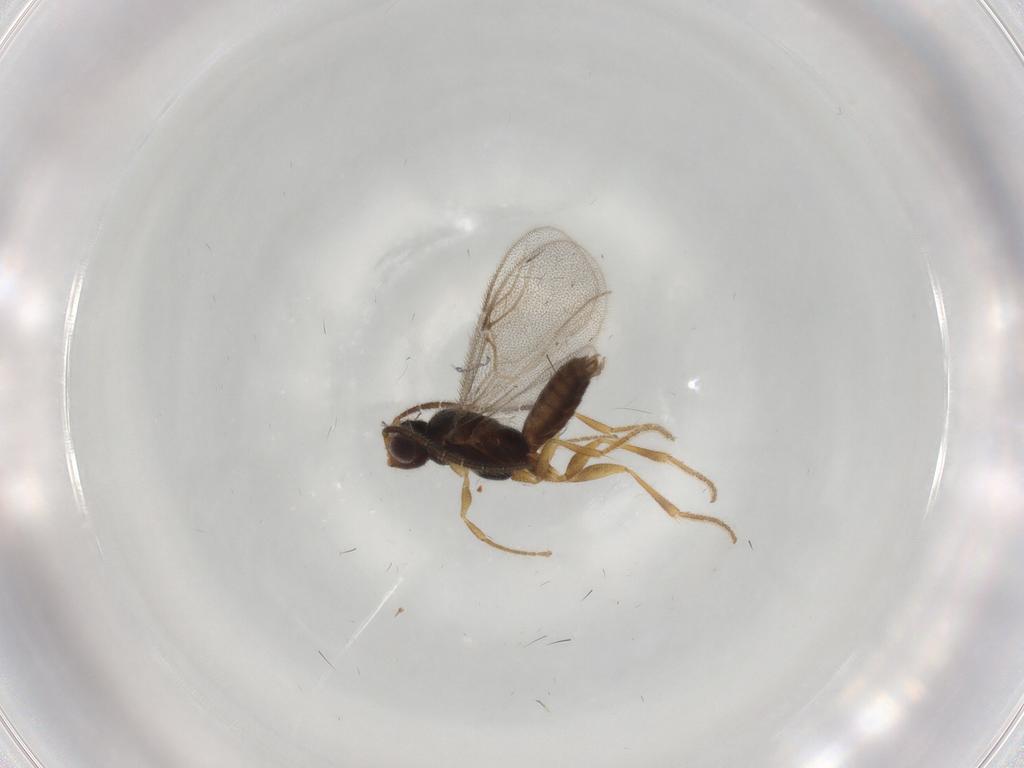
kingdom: Animalia
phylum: Arthropoda
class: Insecta
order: Hymenoptera
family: Dryinidae
